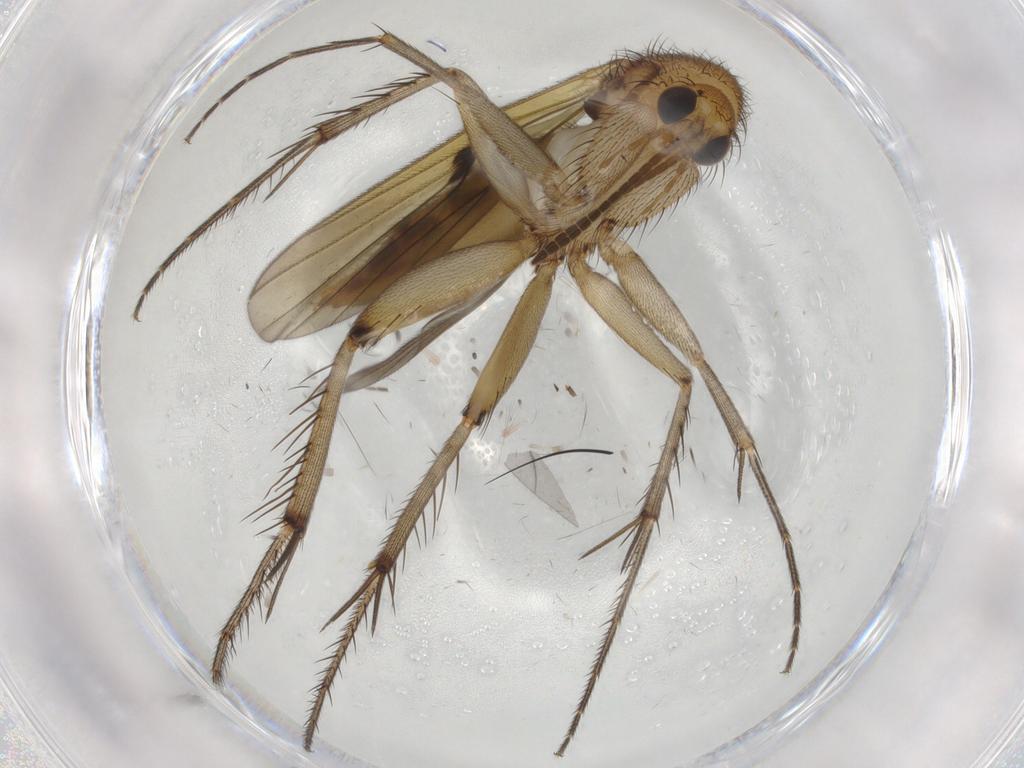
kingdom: Animalia
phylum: Arthropoda
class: Insecta
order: Diptera
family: Mycetophilidae
